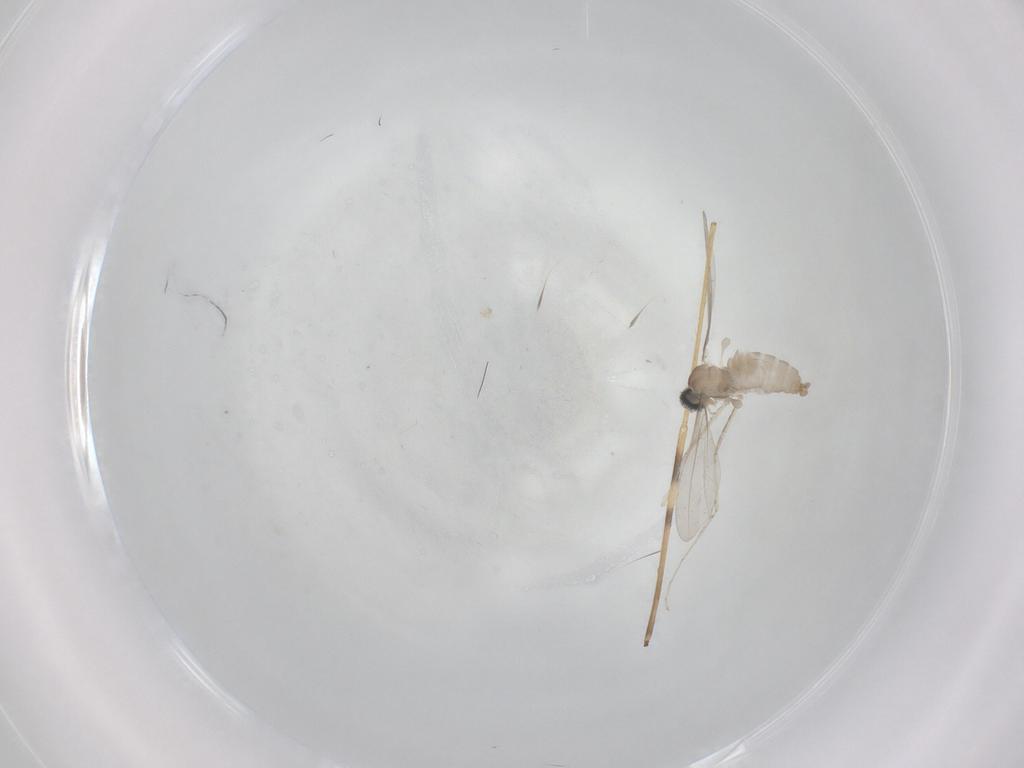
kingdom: Animalia
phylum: Arthropoda
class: Insecta
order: Diptera
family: Limoniidae
